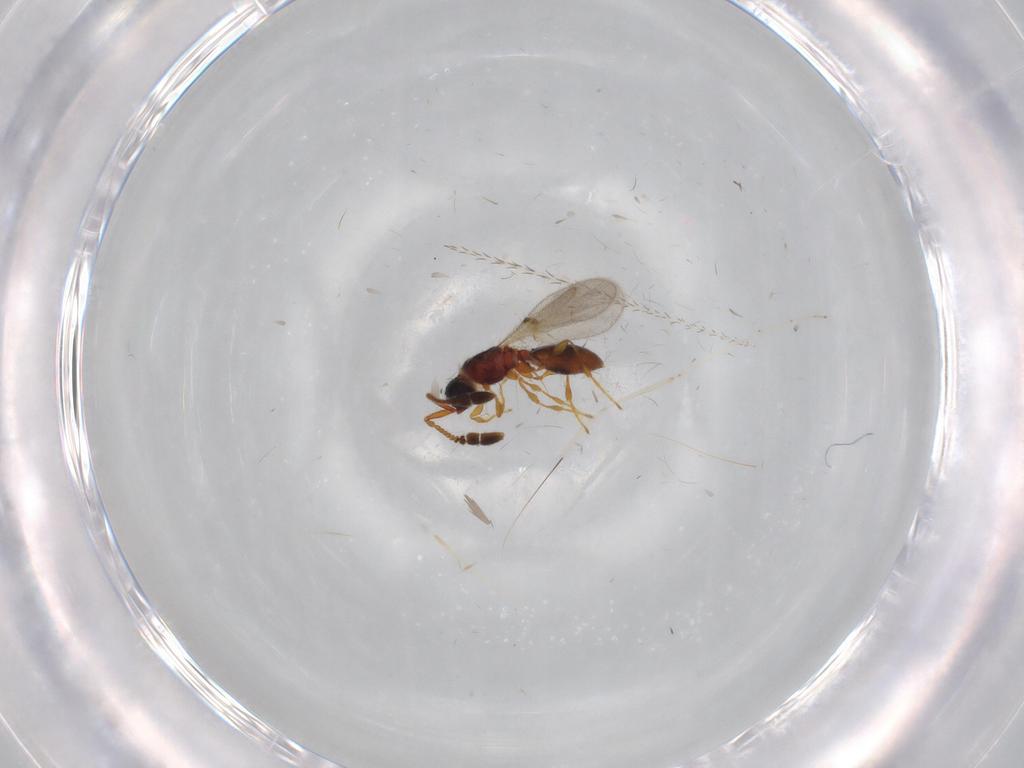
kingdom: Animalia
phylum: Arthropoda
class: Insecta
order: Hymenoptera
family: Diapriidae
